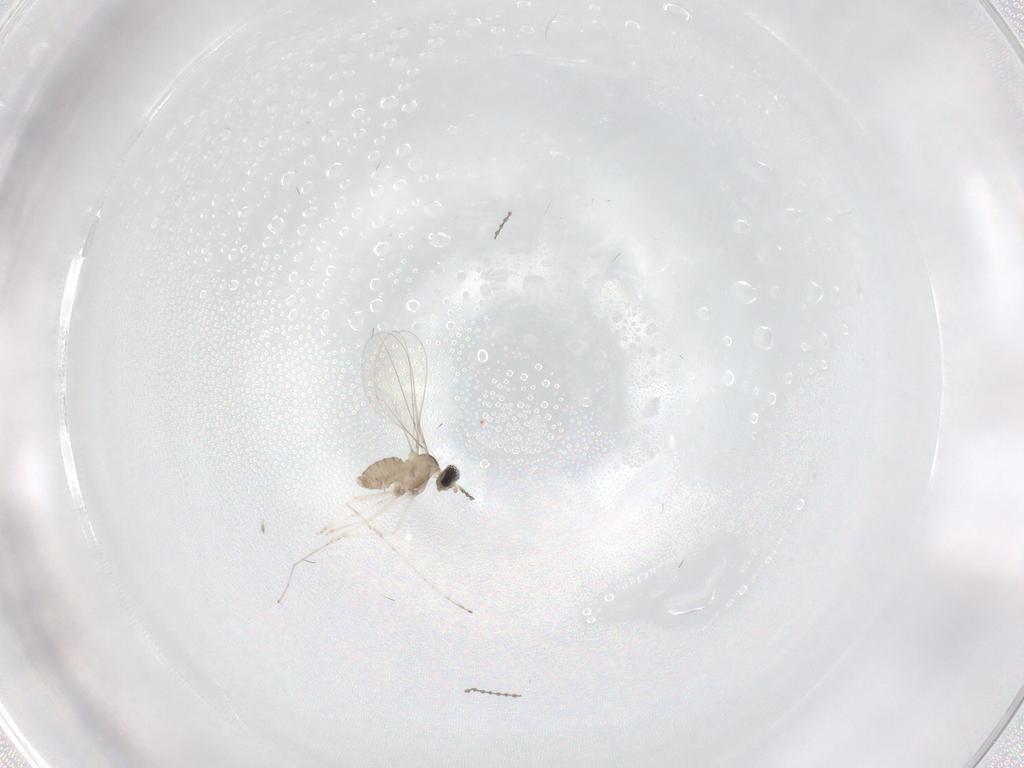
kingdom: Animalia
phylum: Arthropoda
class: Insecta
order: Diptera
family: Cecidomyiidae
